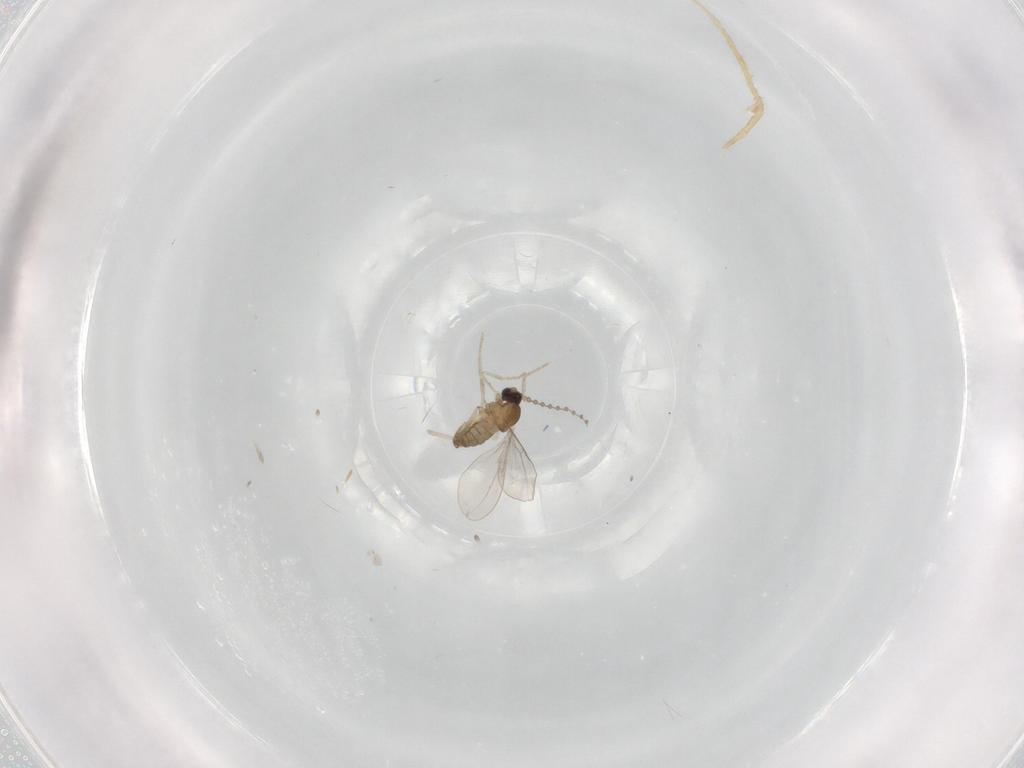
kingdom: Animalia
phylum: Arthropoda
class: Insecta
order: Diptera
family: Cecidomyiidae
